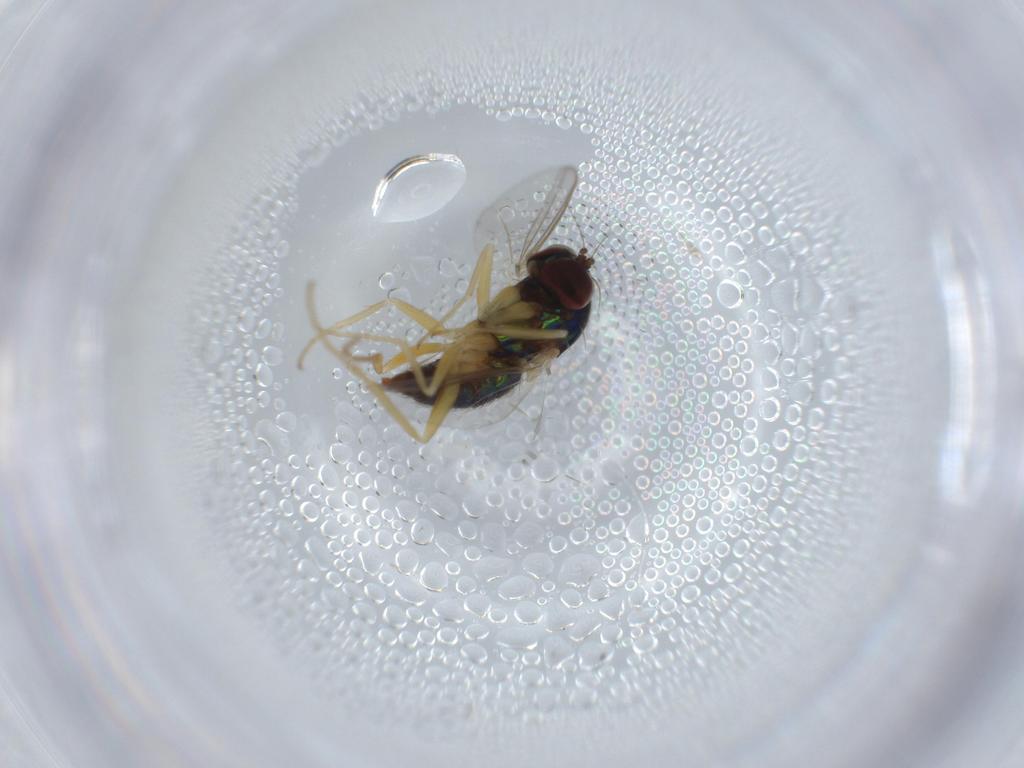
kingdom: Animalia
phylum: Arthropoda
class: Insecta
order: Diptera
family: Dolichopodidae
